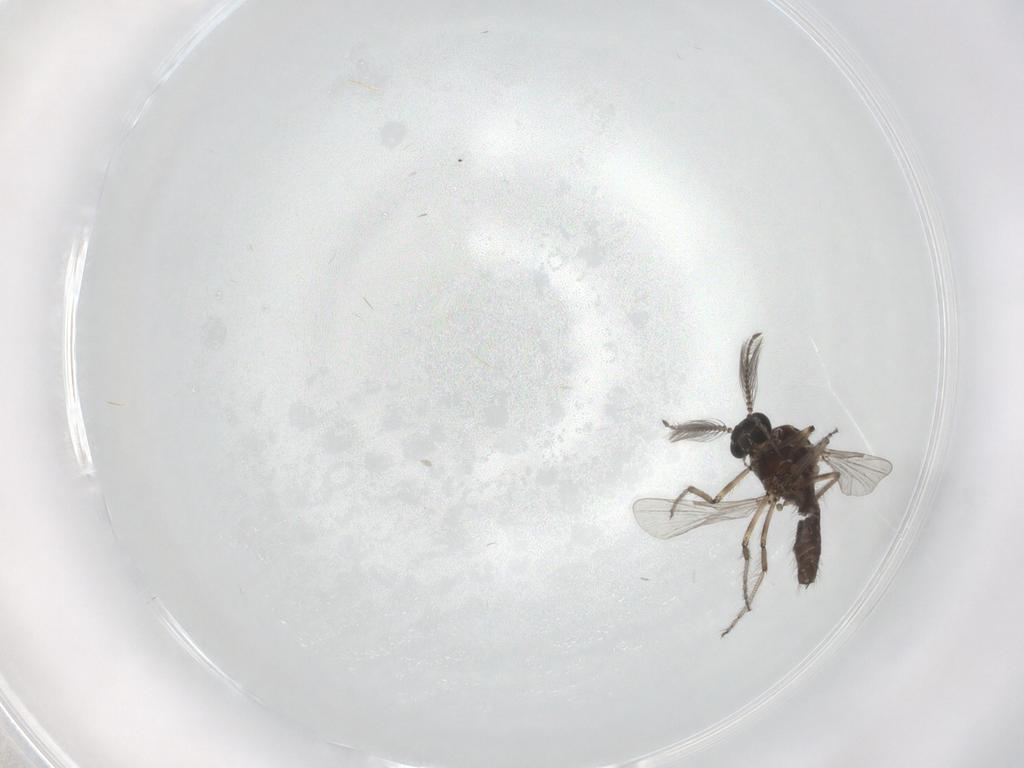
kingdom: Animalia
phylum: Arthropoda
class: Insecta
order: Diptera
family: Ceratopogonidae
